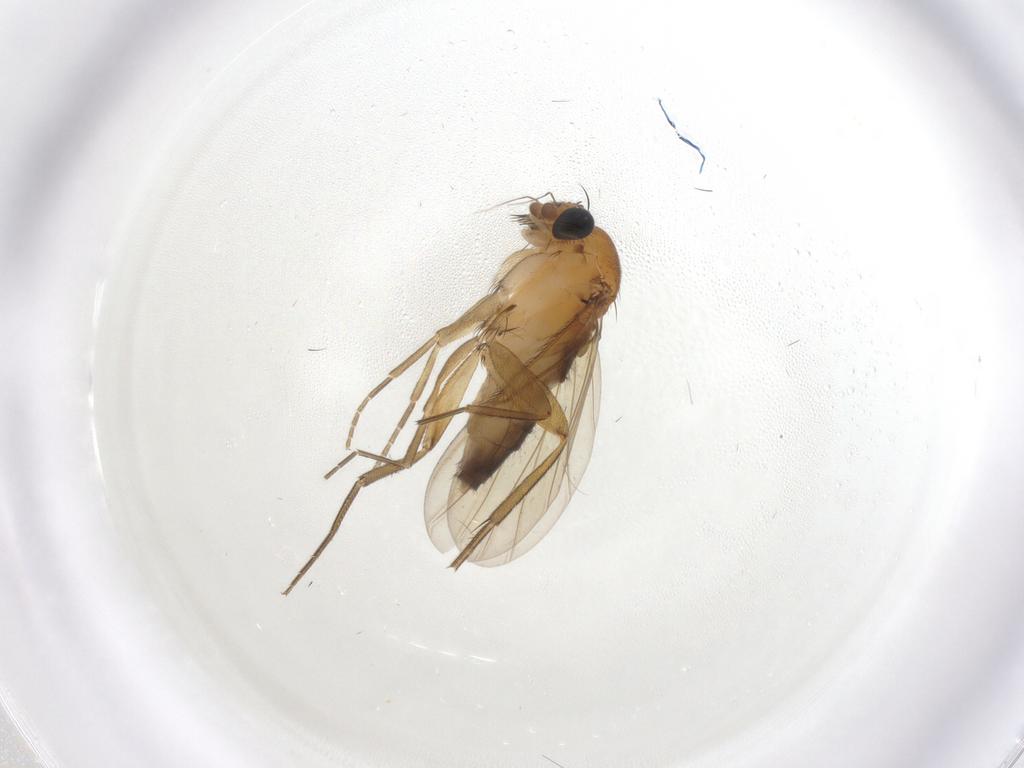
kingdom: Animalia
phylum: Arthropoda
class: Insecta
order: Diptera
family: Phoridae
